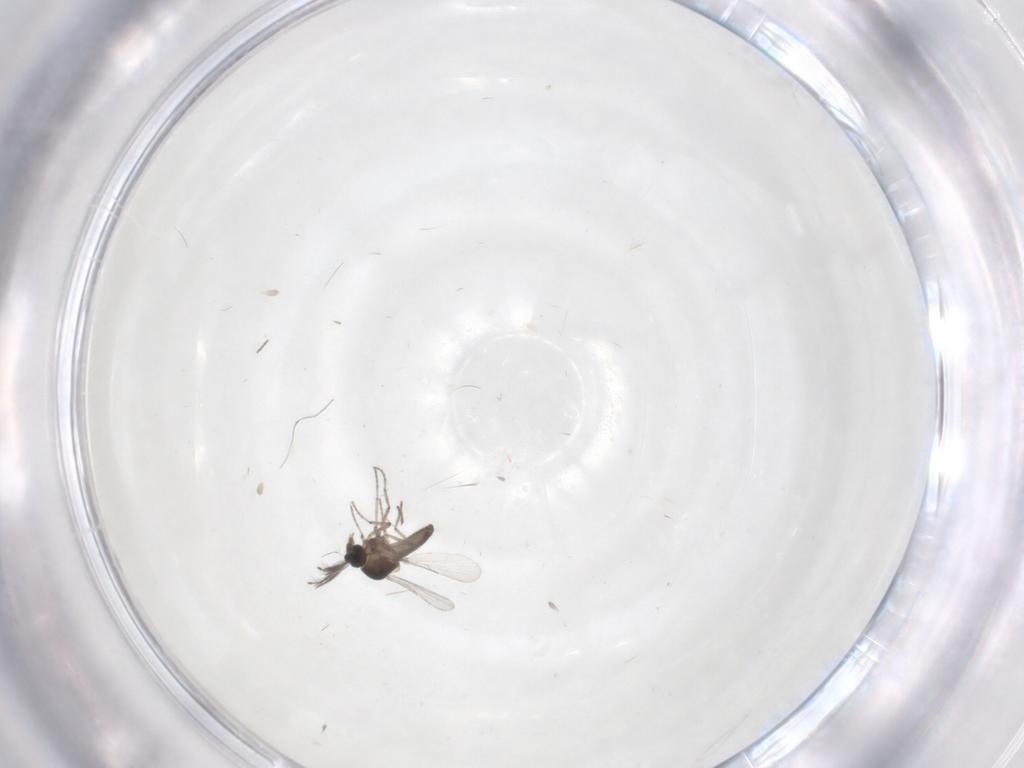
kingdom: Animalia
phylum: Arthropoda
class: Insecta
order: Diptera
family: Ceratopogonidae
